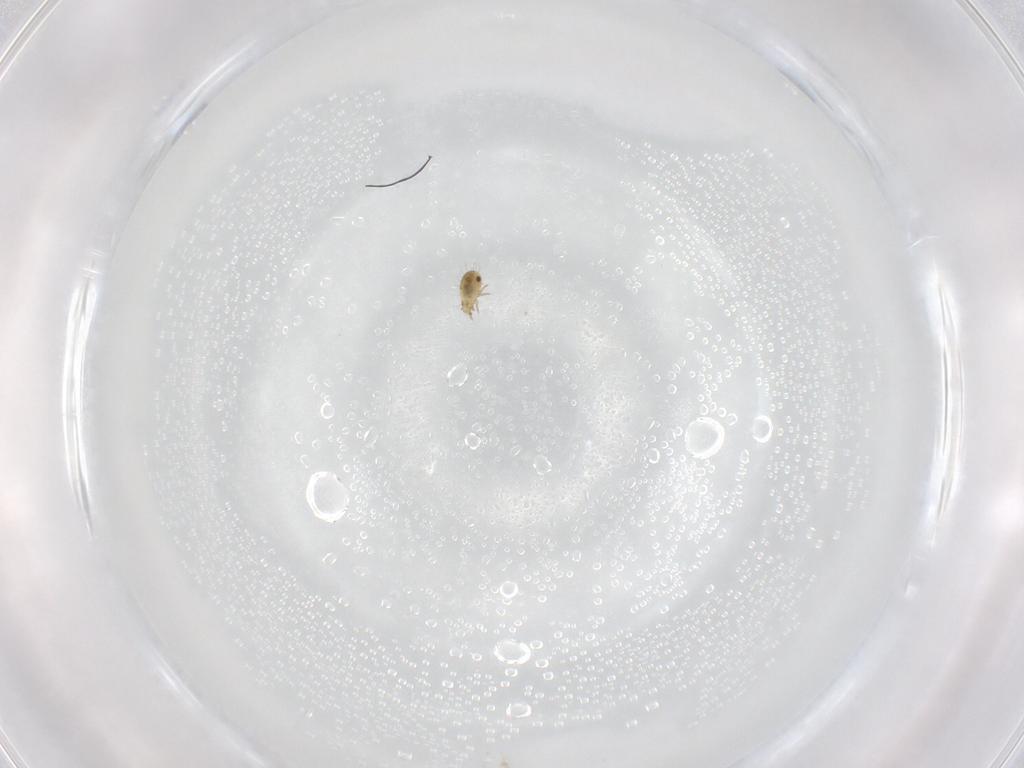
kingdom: Animalia
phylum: Arthropoda
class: Arachnida
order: Sarcoptiformes
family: Humerobatidae
